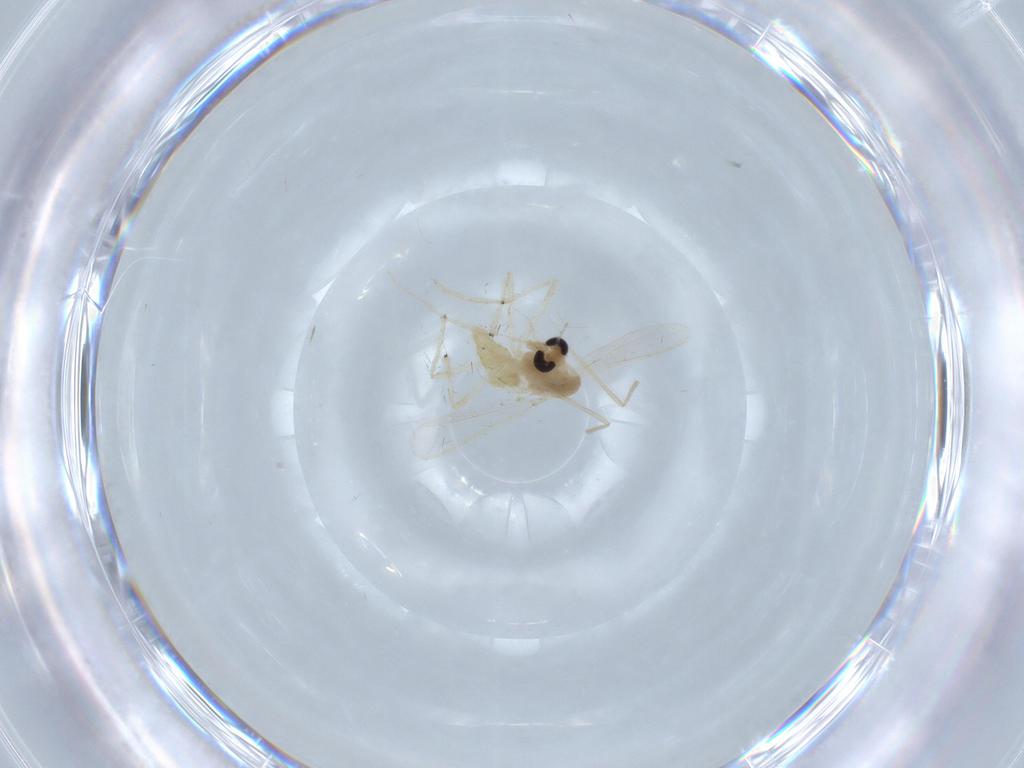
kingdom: Animalia
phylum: Arthropoda
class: Insecta
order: Diptera
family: Chironomidae
